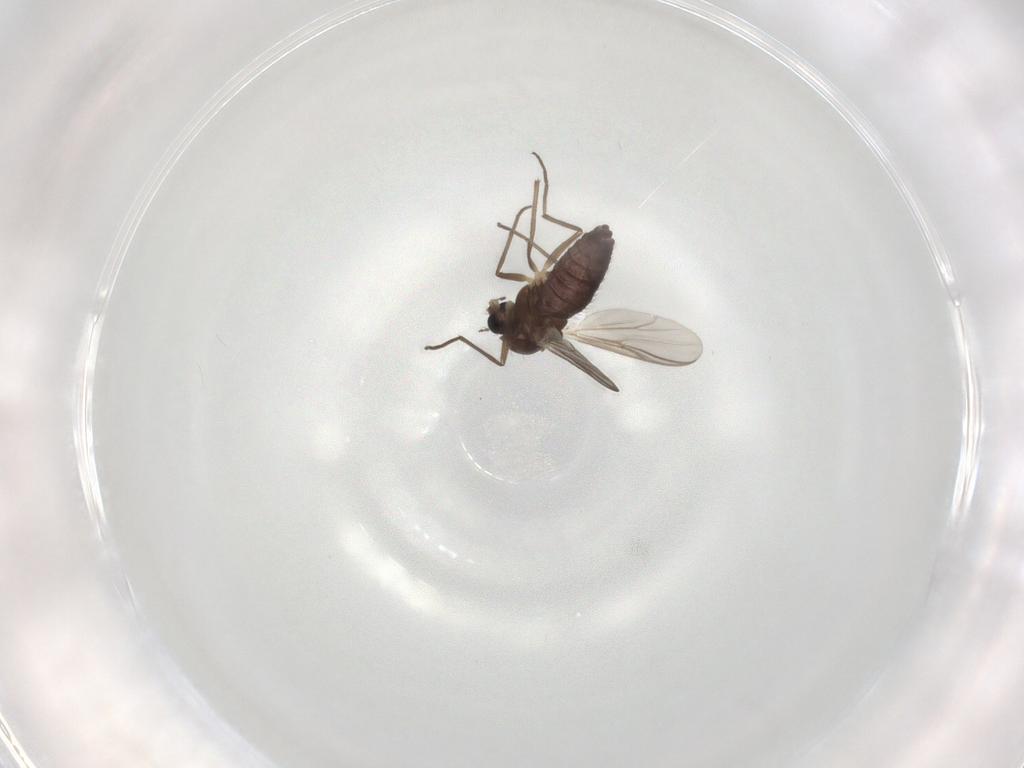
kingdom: Animalia
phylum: Arthropoda
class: Insecta
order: Diptera
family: Chironomidae
